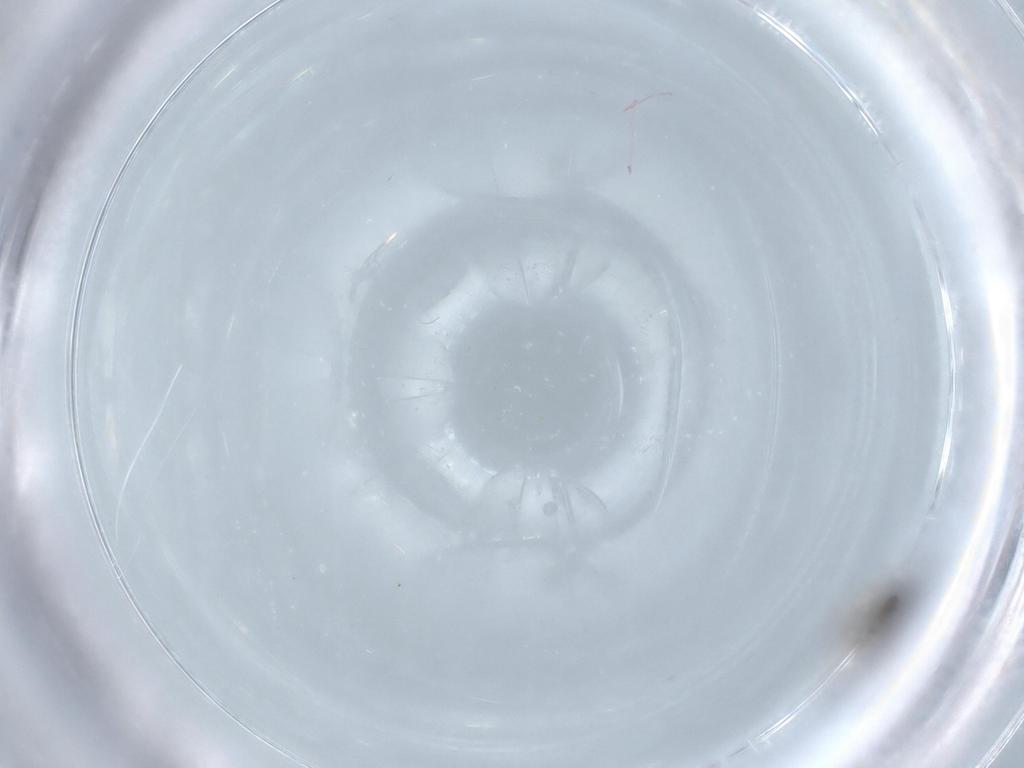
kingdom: Animalia
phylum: Arthropoda
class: Insecta
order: Diptera
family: Chironomidae
